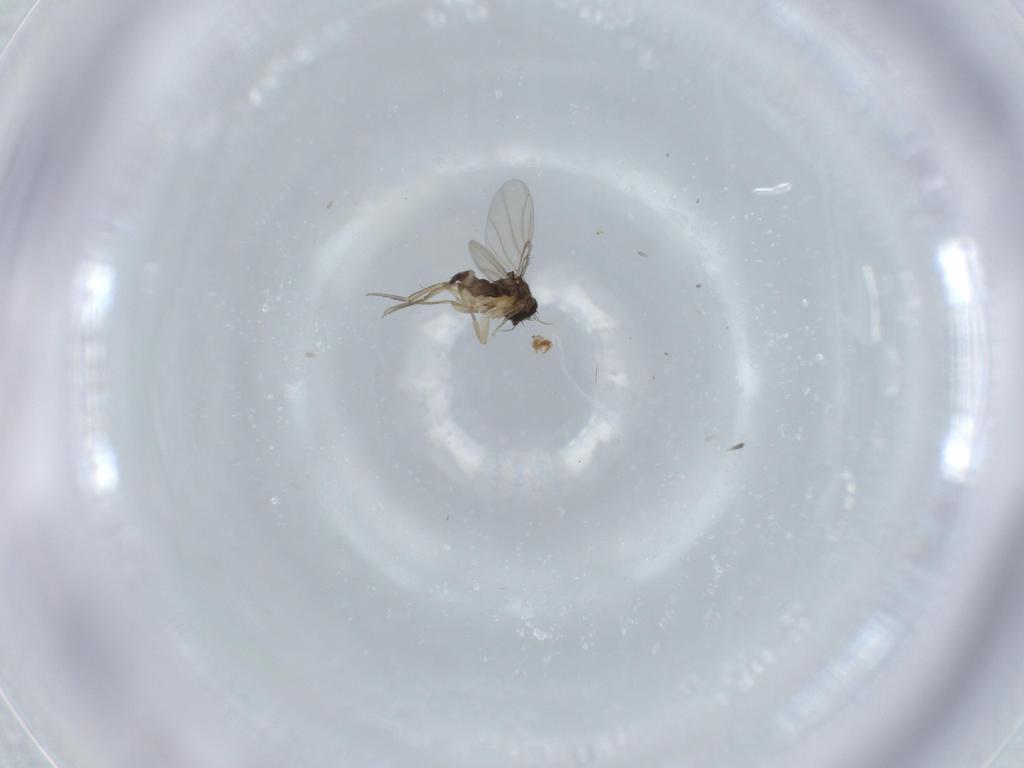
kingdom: Animalia
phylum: Arthropoda
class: Insecta
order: Diptera
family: Phoridae
